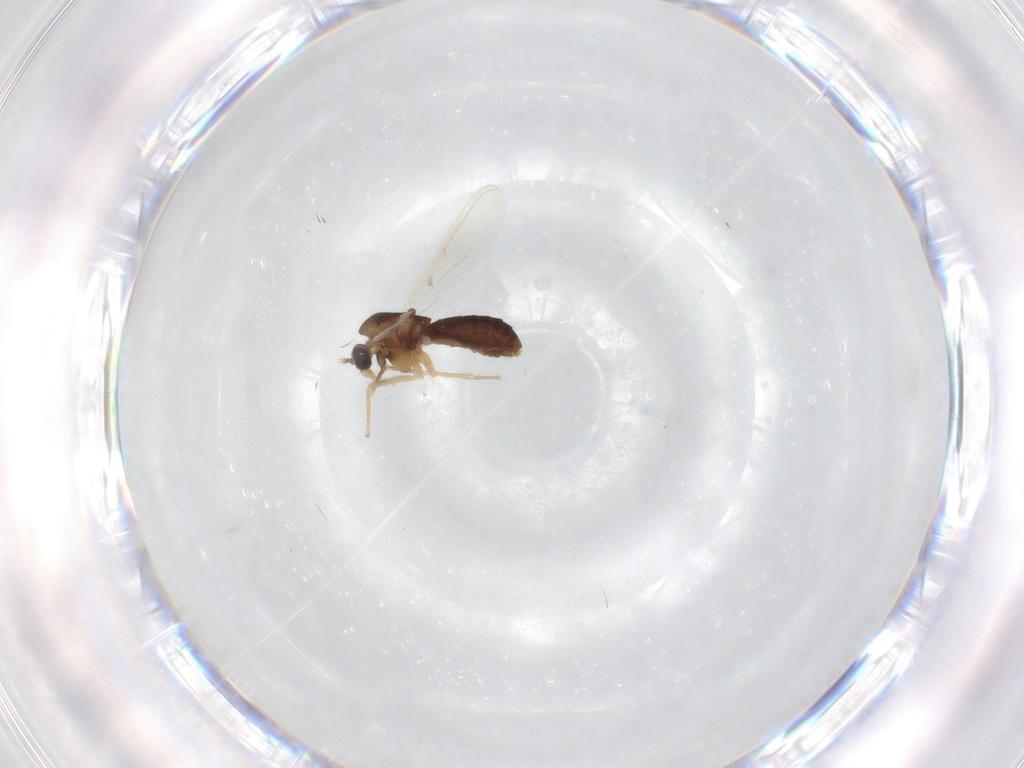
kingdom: Animalia
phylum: Arthropoda
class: Insecta
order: Diptera
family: Chironomidae
